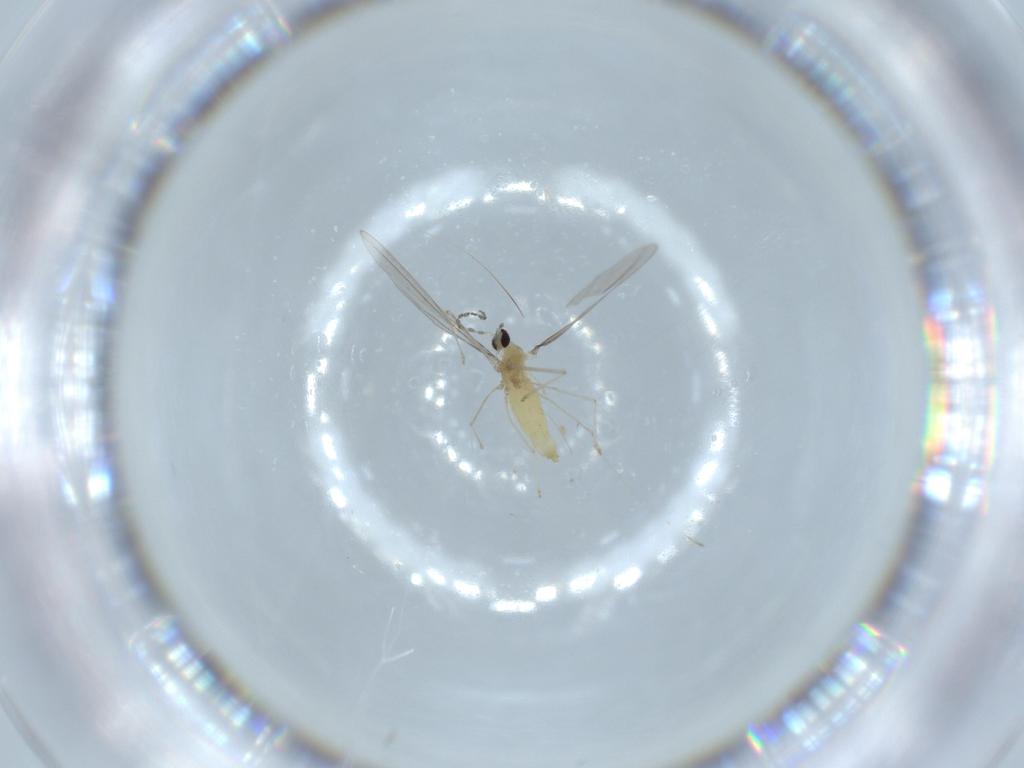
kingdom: Animalia
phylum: Arthropoda
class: Insecta
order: Diptera
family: Cecidomyiidae
